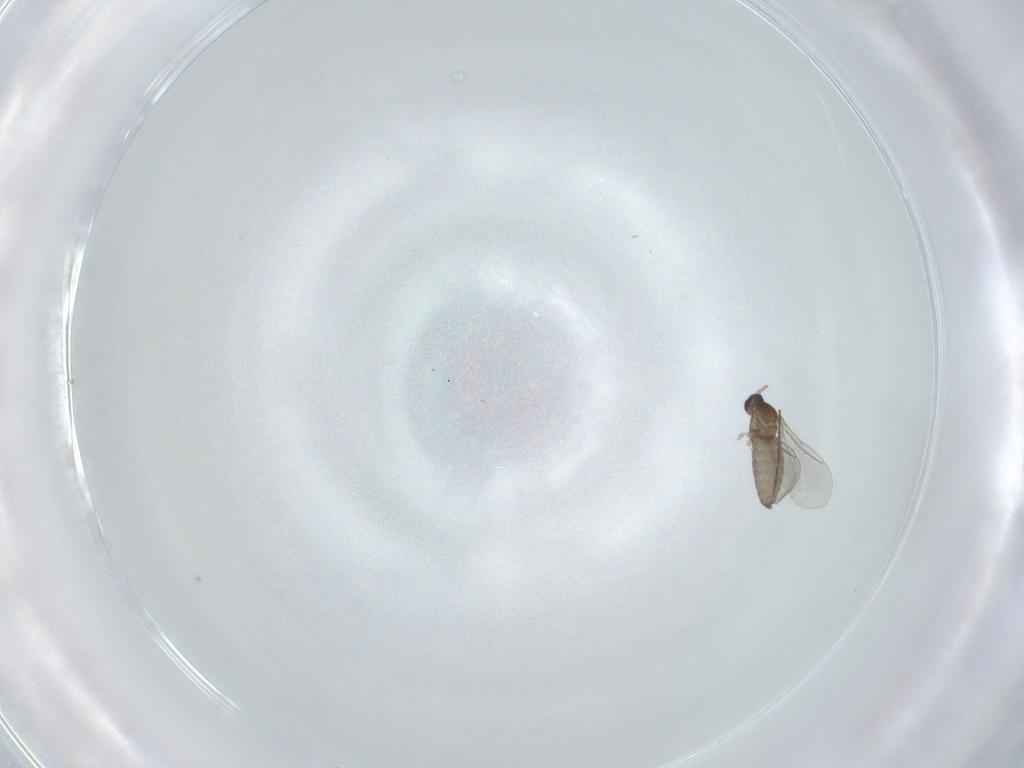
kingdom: Animalia
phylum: Arthropoda
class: Insecta
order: Diptera
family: Cecidomyiidae
